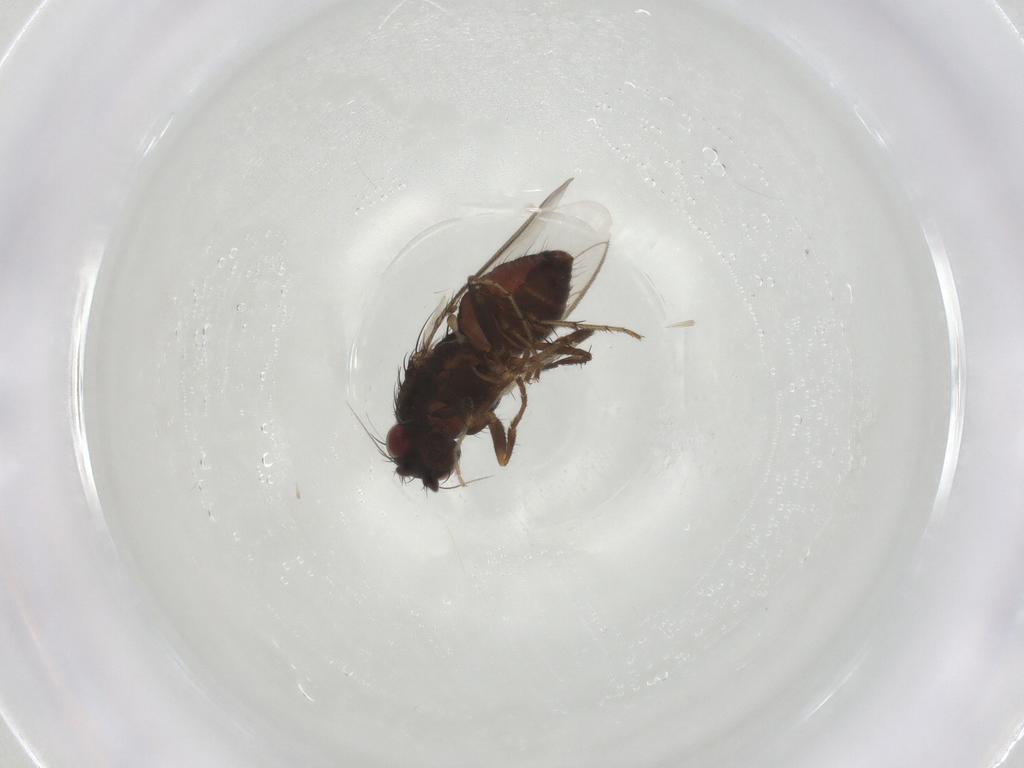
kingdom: Animalia
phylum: Arthropoda
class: Insecta
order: Diptera
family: Sphaeroceridae
